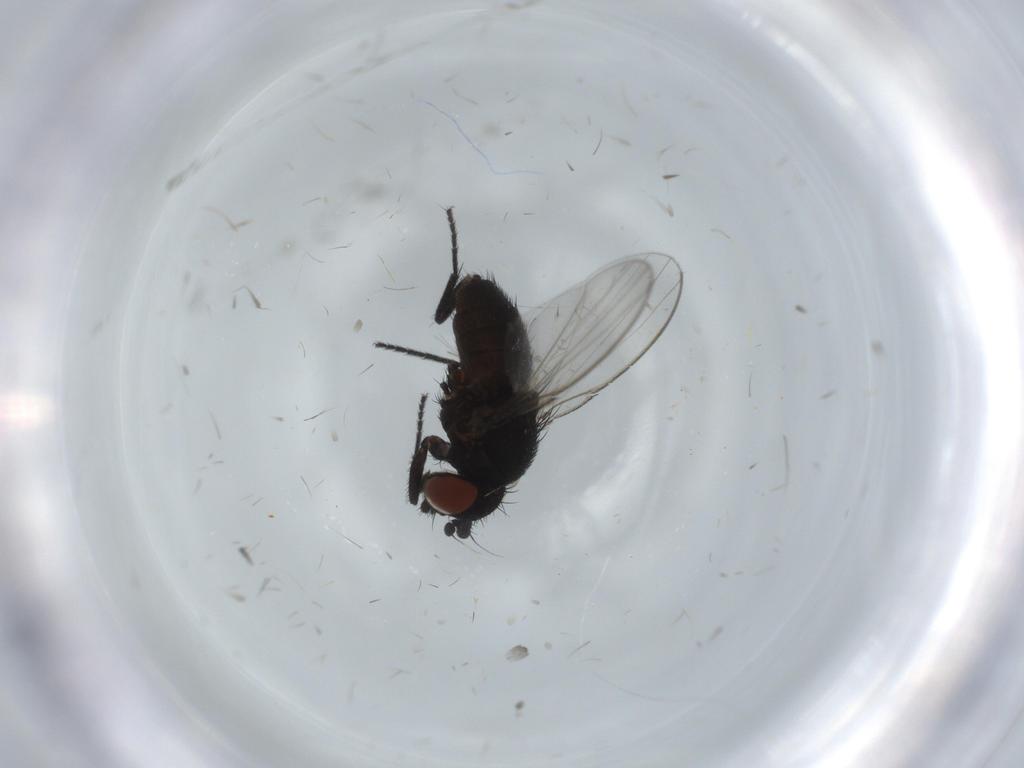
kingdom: Animalia
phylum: Arthropoda
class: Insecta
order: Diptera
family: Milichiidae
